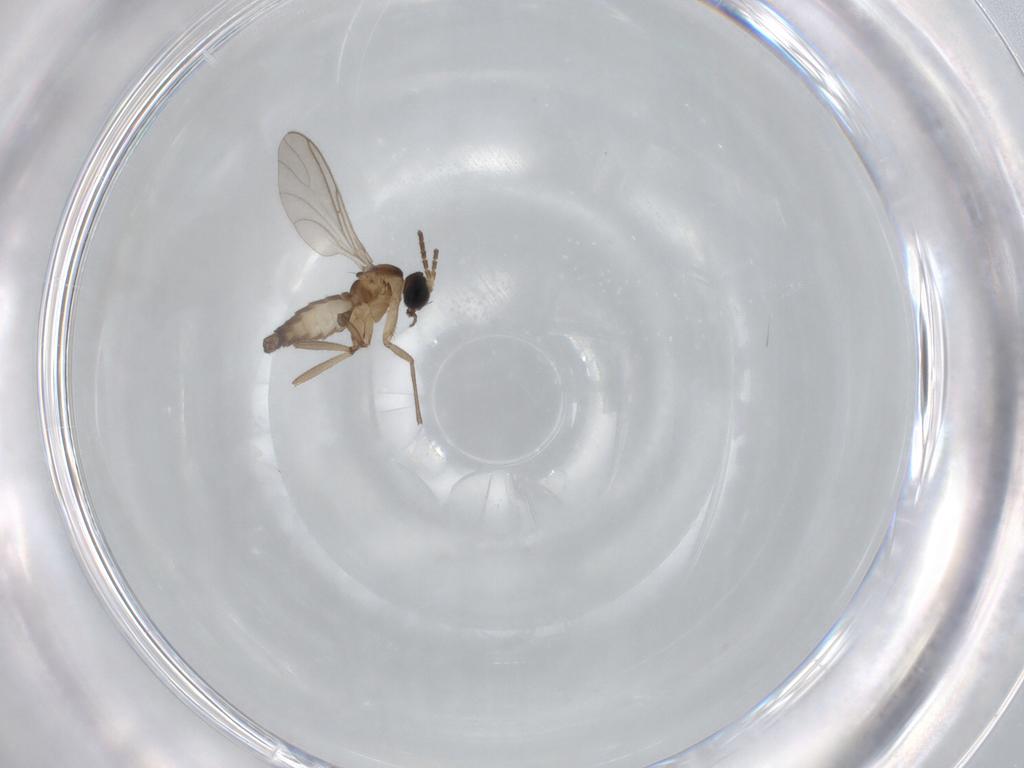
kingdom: Animalia
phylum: Arthropoda
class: Insecta
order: Diptera
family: Sciaridae
